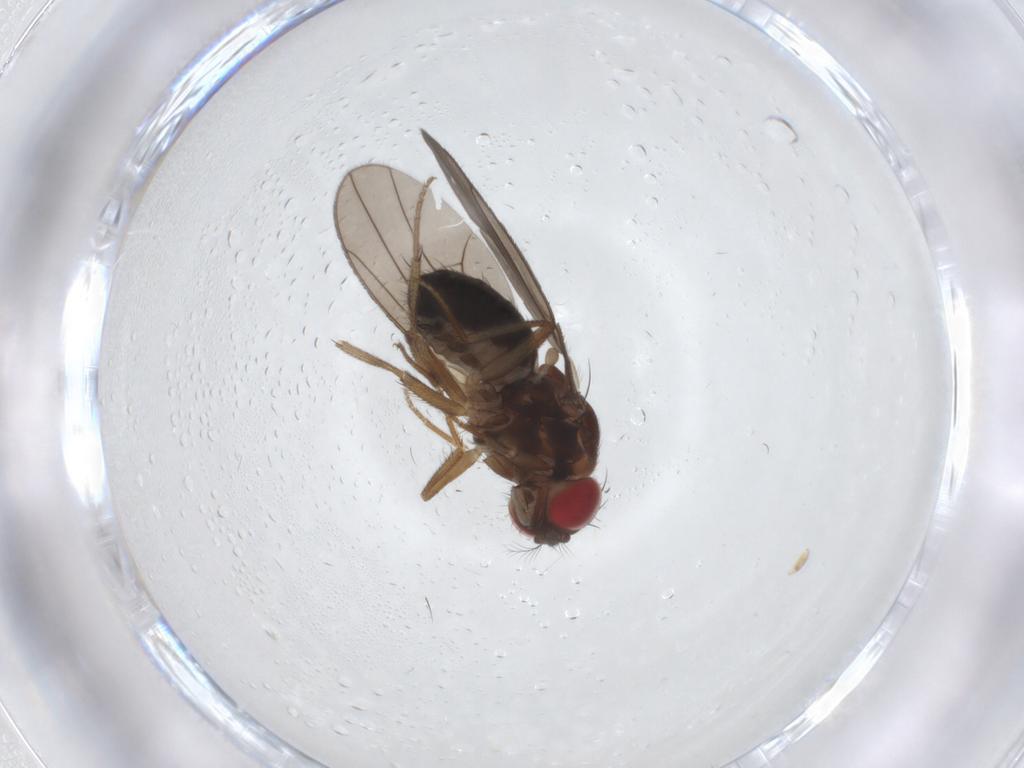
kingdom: Animalia
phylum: Arthropoda
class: Insecta
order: Diptera
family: Drosophilidae
